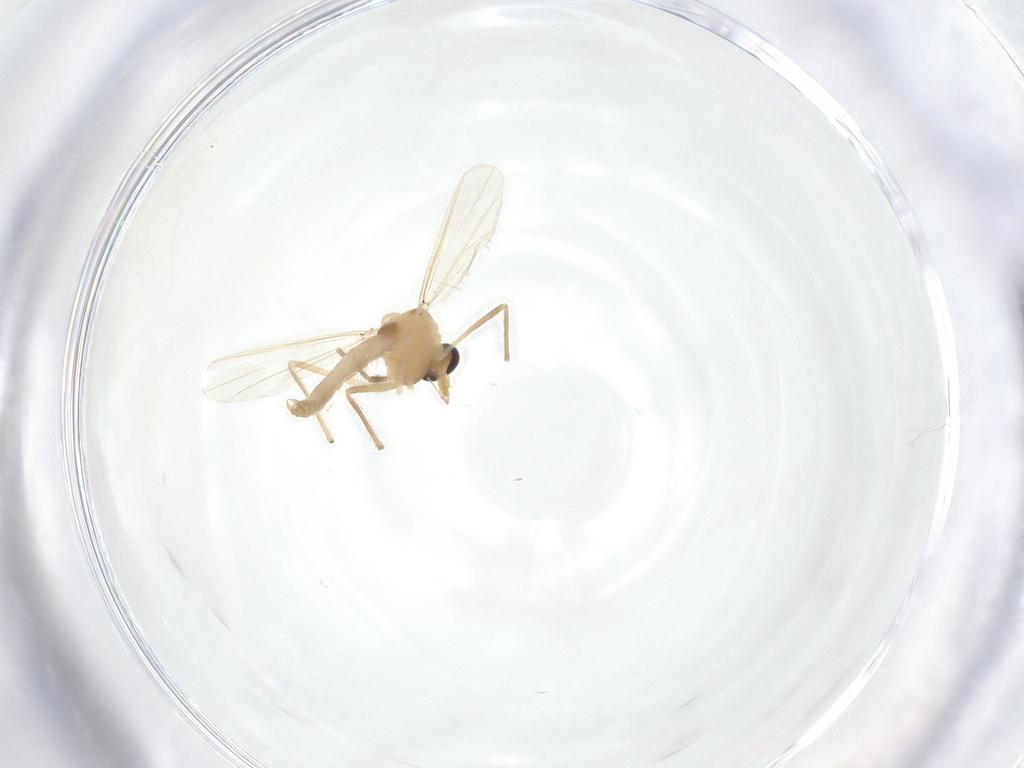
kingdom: Animalia
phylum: Arthropoda
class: Insecta
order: Diptera
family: Chironomidae
